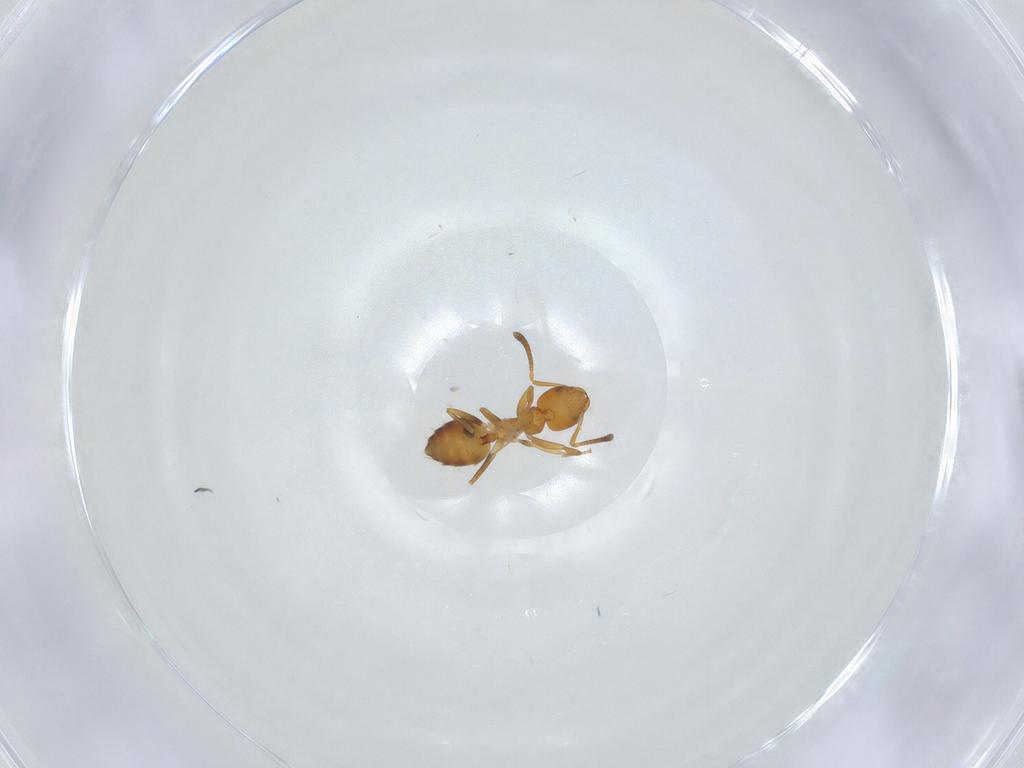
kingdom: Animalia
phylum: Arthropoda
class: Insecta
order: Hymenoptera
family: Formicidae
